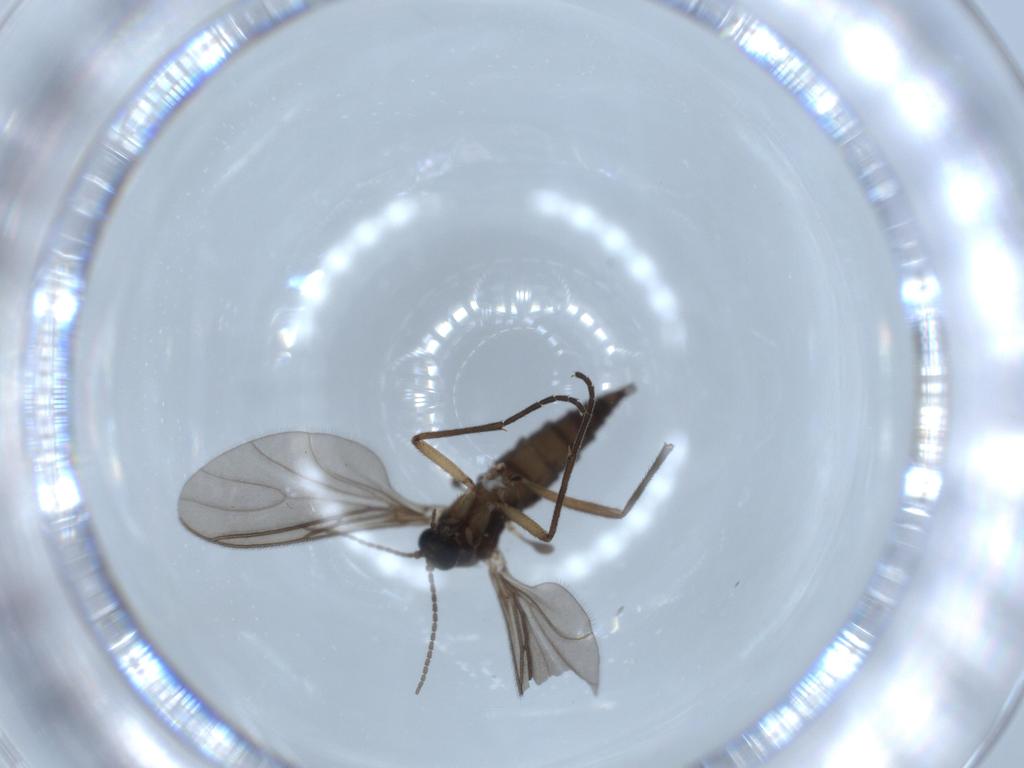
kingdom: Animalia
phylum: Arthropoda
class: Insecta
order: Diptera
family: Sciaridae
